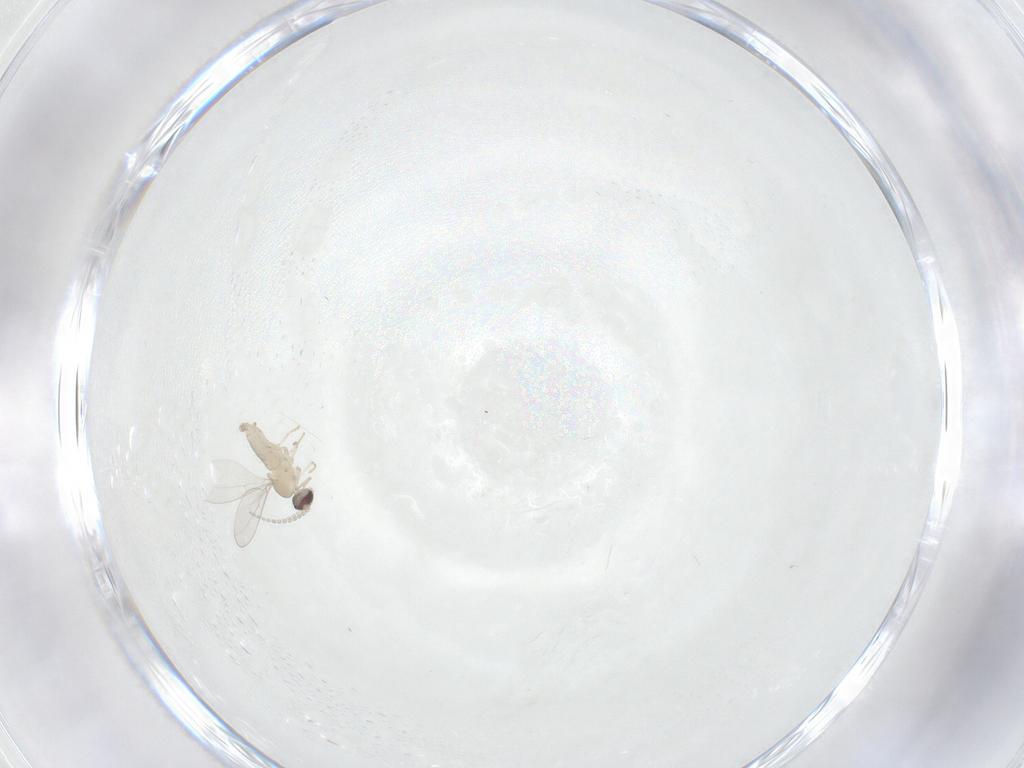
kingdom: Animalia
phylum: Arthropoda
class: Insecta
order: Diptera
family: Cecidomyiidae
